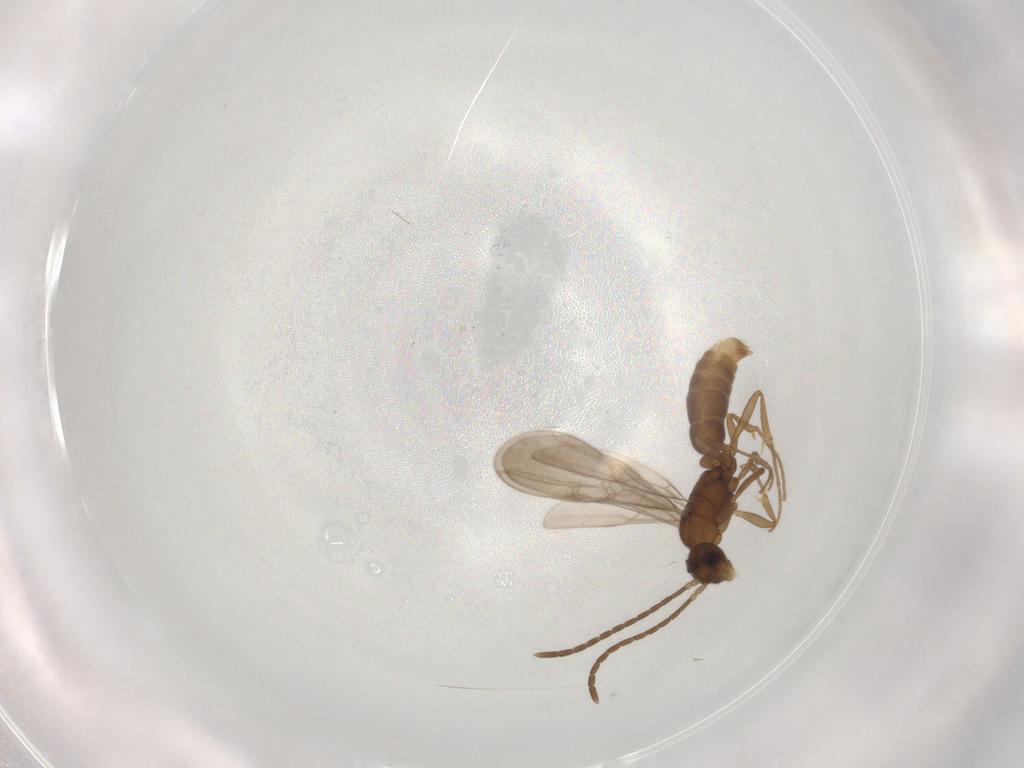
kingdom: Animalia
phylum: Arthropoda
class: Insecta
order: Hymenoptera
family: Formicidae
